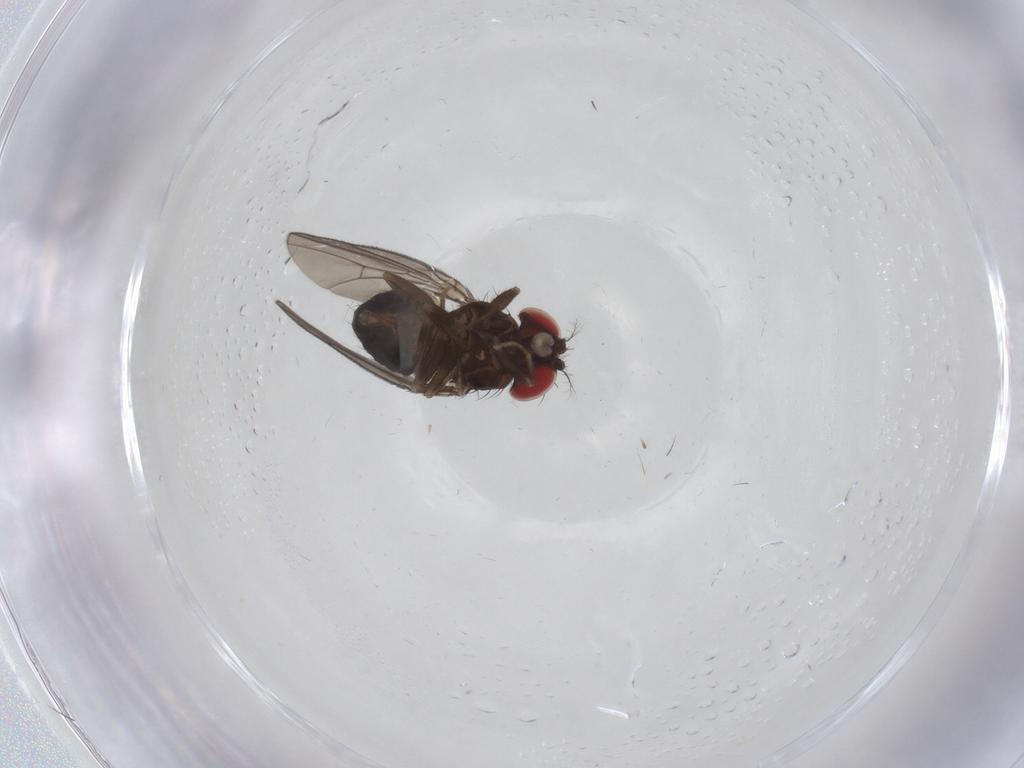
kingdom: Animalia
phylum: Arthropoda
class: Insecta
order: Diptera
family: Drosophilidae
